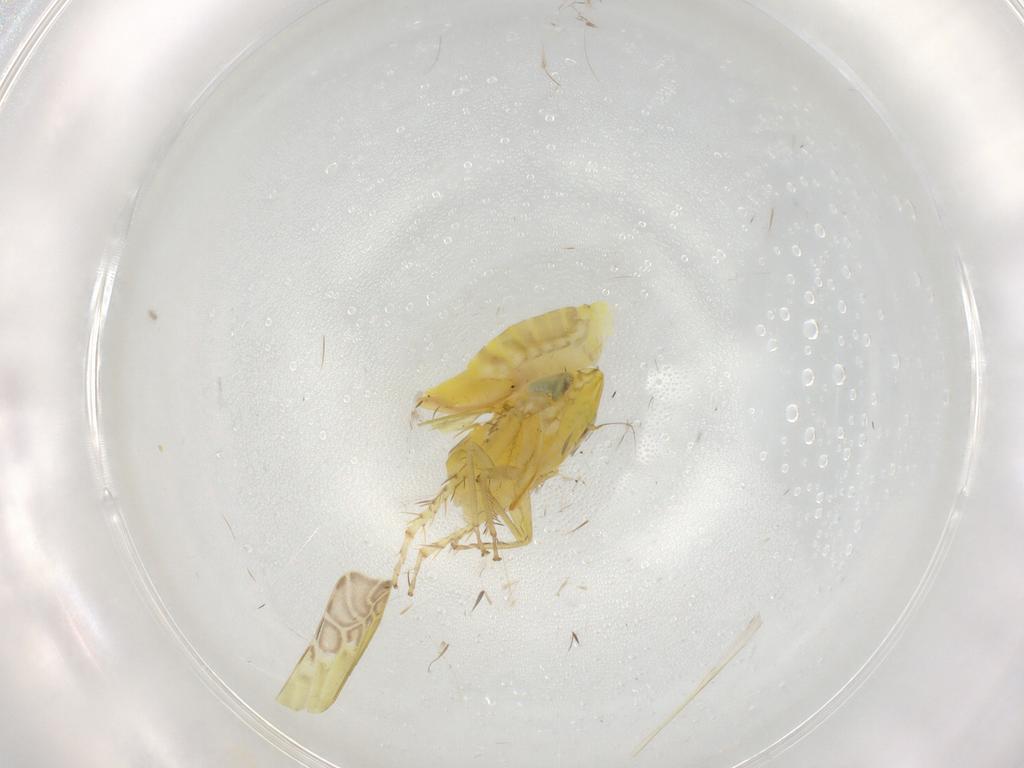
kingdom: Animalia
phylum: Arthropoda
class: Insecta
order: Hemiptera
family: Cicadellidae
